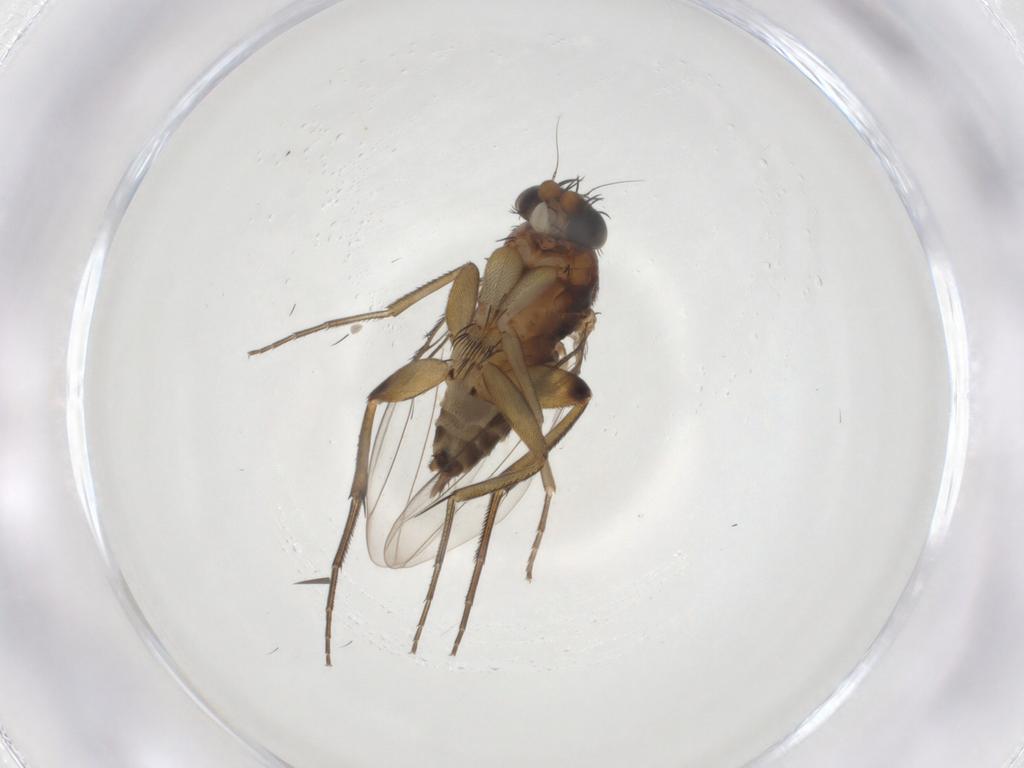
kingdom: Animalia
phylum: Arthropoda
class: Insecta
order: Diptera
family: Phoridae
